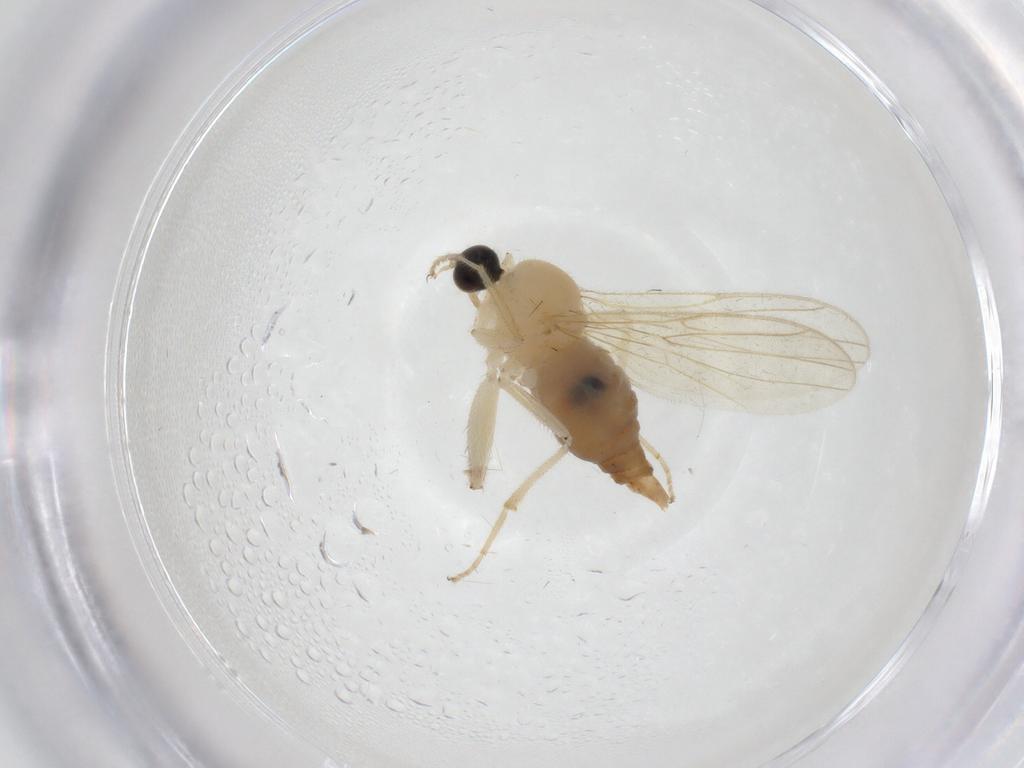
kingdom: Animalia
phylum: Arthropoda
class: Insecta
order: Diptera
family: Hybotidae
